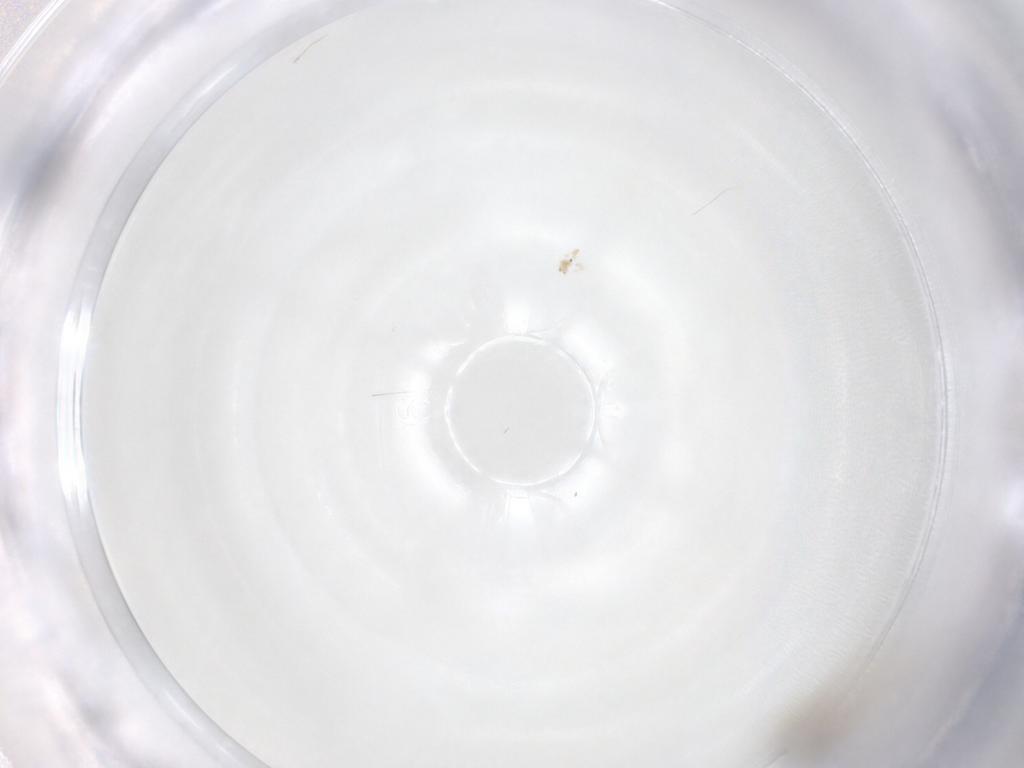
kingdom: Animalia
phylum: Arthropoda
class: Insecta
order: Diptera
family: Cecidomyiidae
